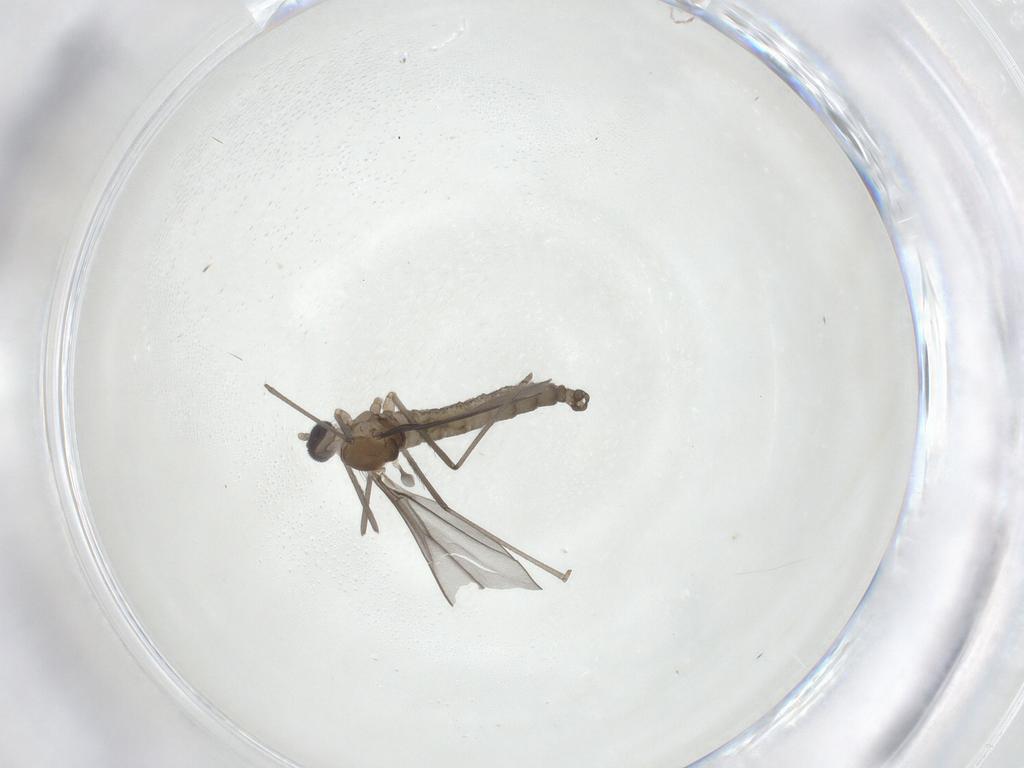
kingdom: Animalia
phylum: Arthropoda
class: Insecta
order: Diptera
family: Cecidomyiidae
